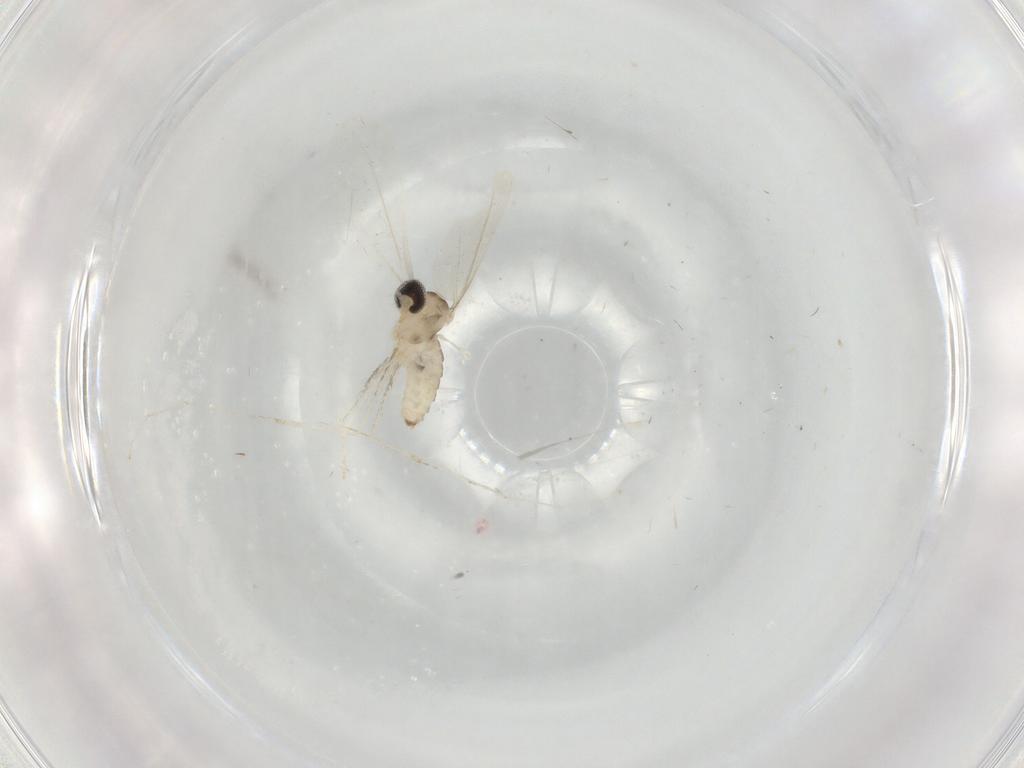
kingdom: Animalia
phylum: Arthropoda
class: Insecta
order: Diptera
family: Cecidomyiidae
